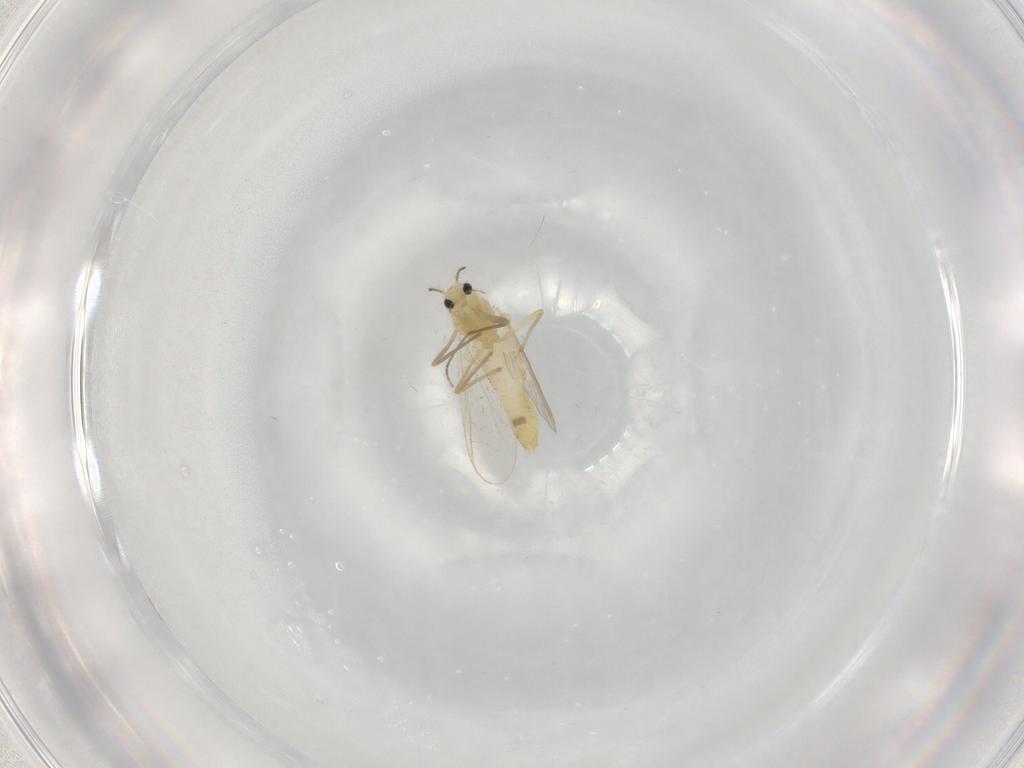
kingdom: Animalia
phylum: Arthropoda
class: Insecta
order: Diptera
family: Chironomidae
